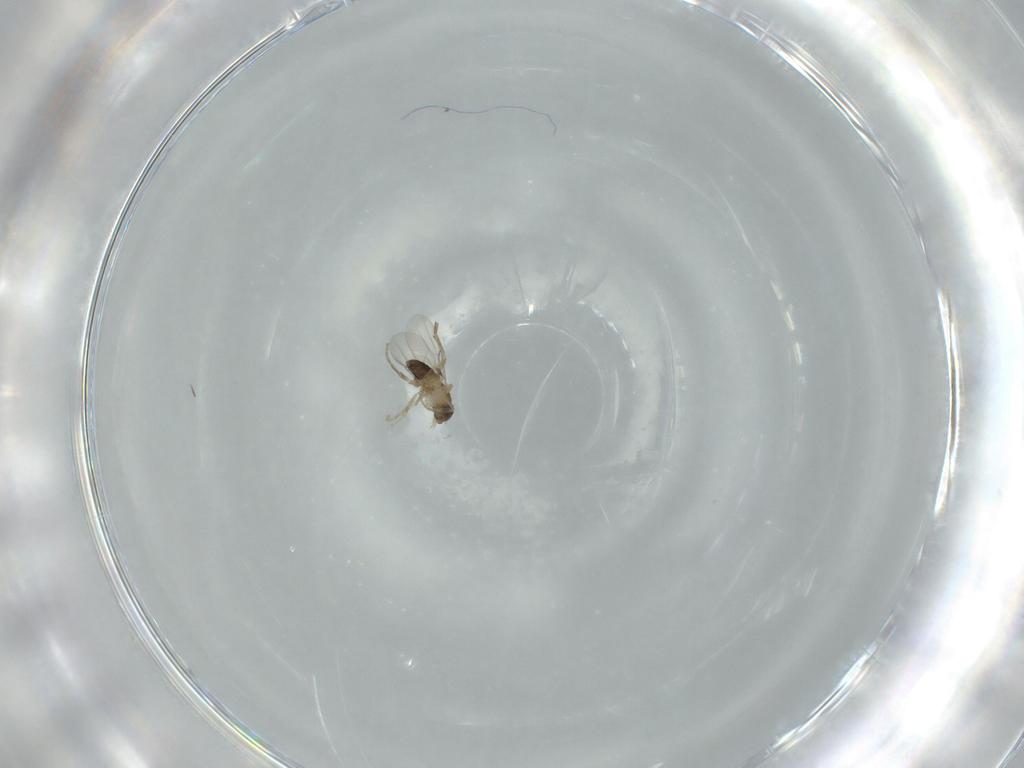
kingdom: Animalia
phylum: Arthropoda
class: Insecta
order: Diptera
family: Phoridae
